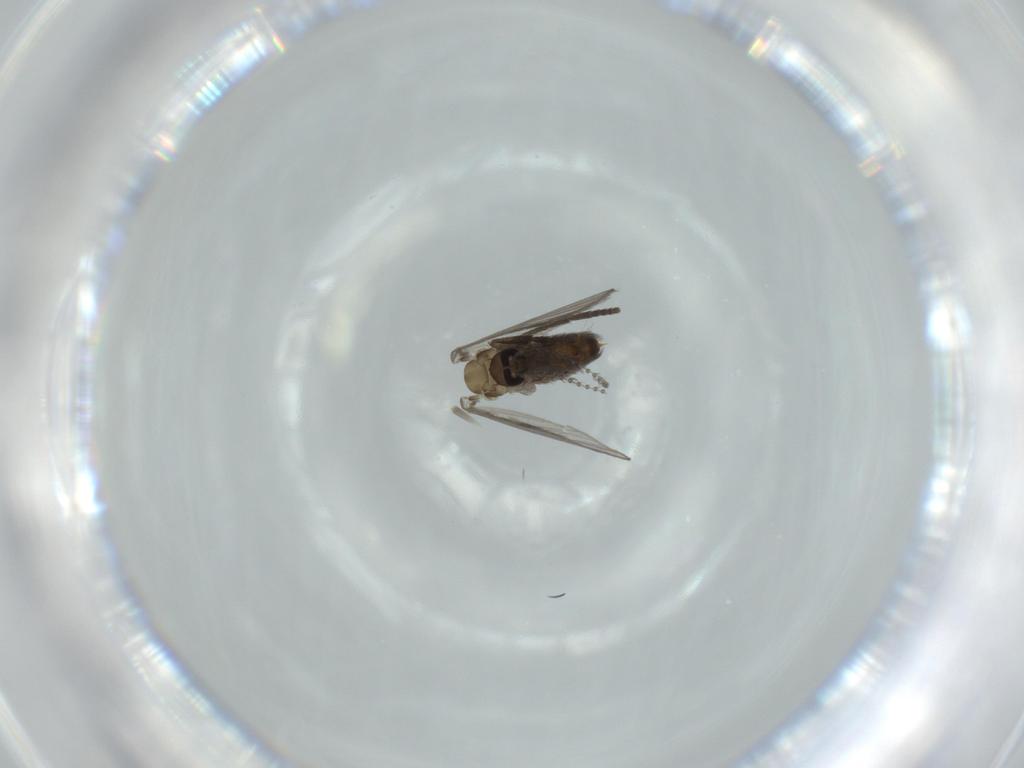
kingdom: Animalia
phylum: Arthropoda
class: Insecta
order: Diptera
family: Psychodidae
